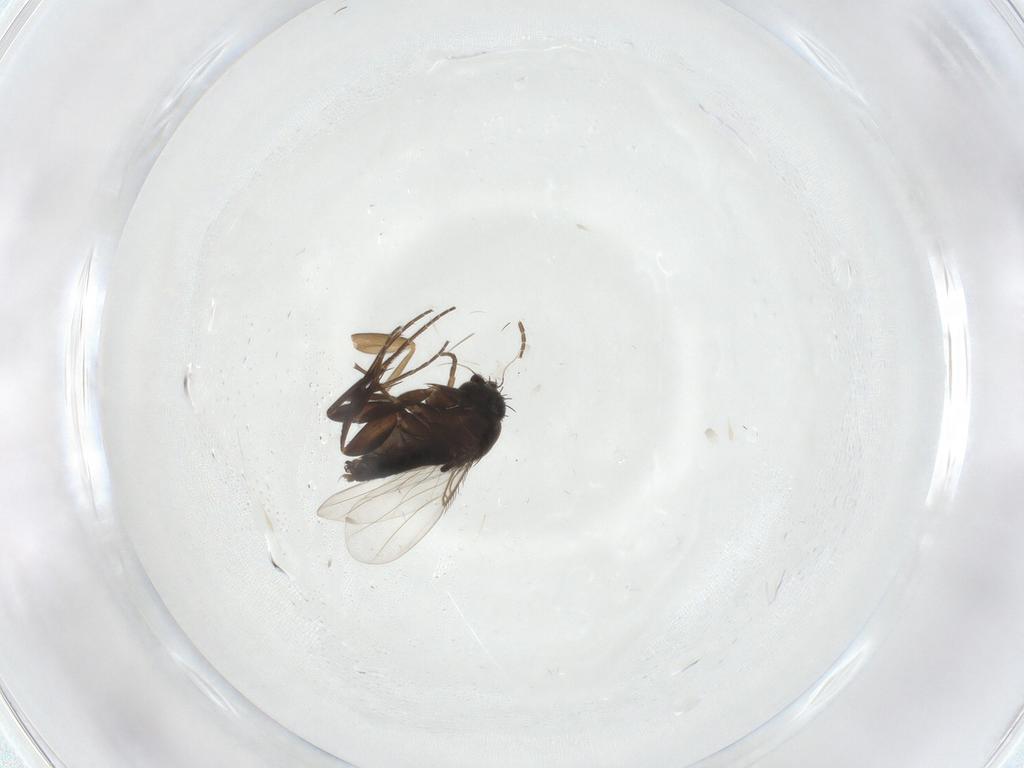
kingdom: Animalia
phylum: Arthropoda
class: Insecta
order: Diptera
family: Phoridae
